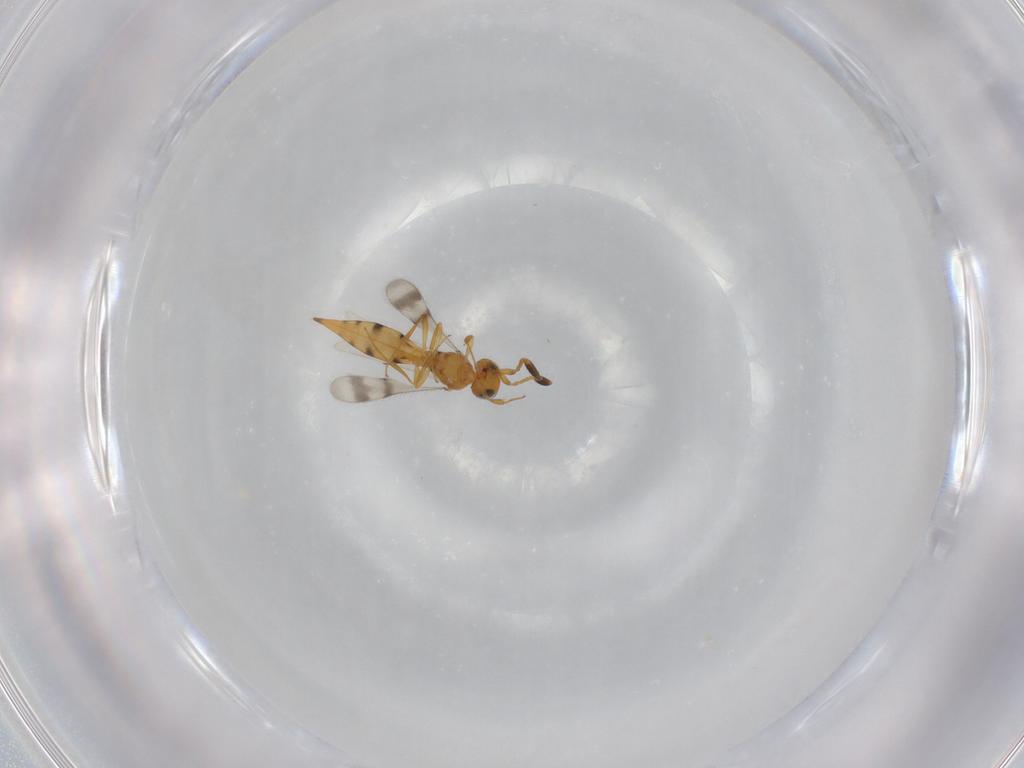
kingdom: Animalia
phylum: Arthropoda
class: Insecta
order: Hymenoptera
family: Scelionidae
